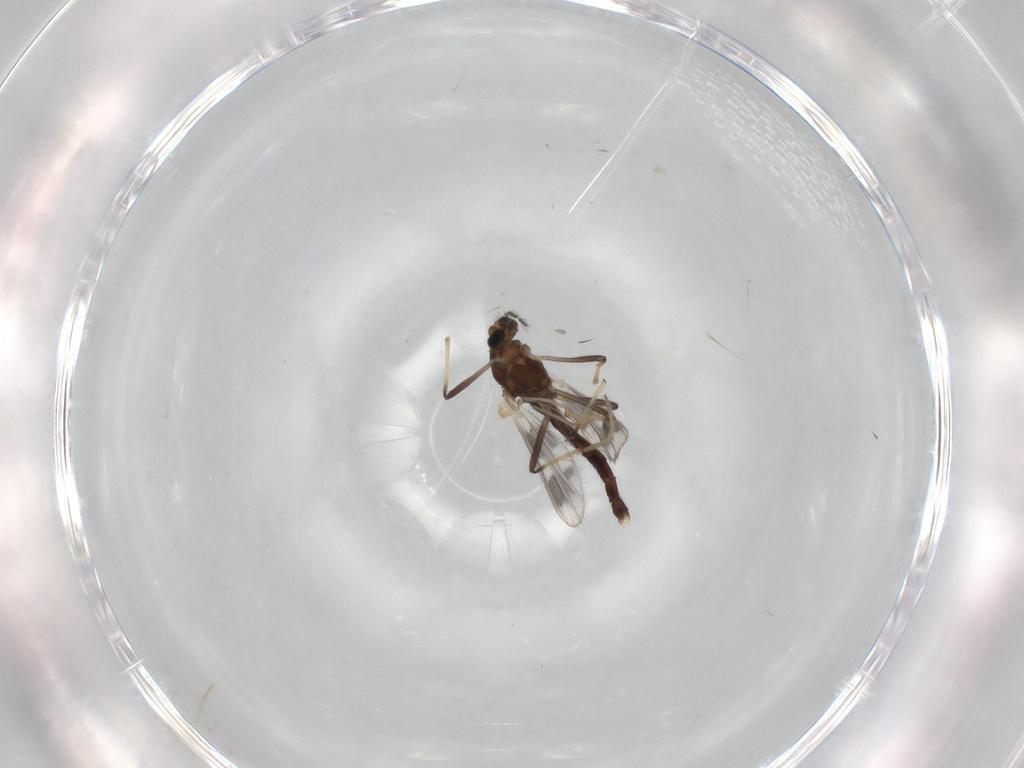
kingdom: Animalia
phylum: Arthropoda
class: Insecta
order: Diptera
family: Chironomidae
